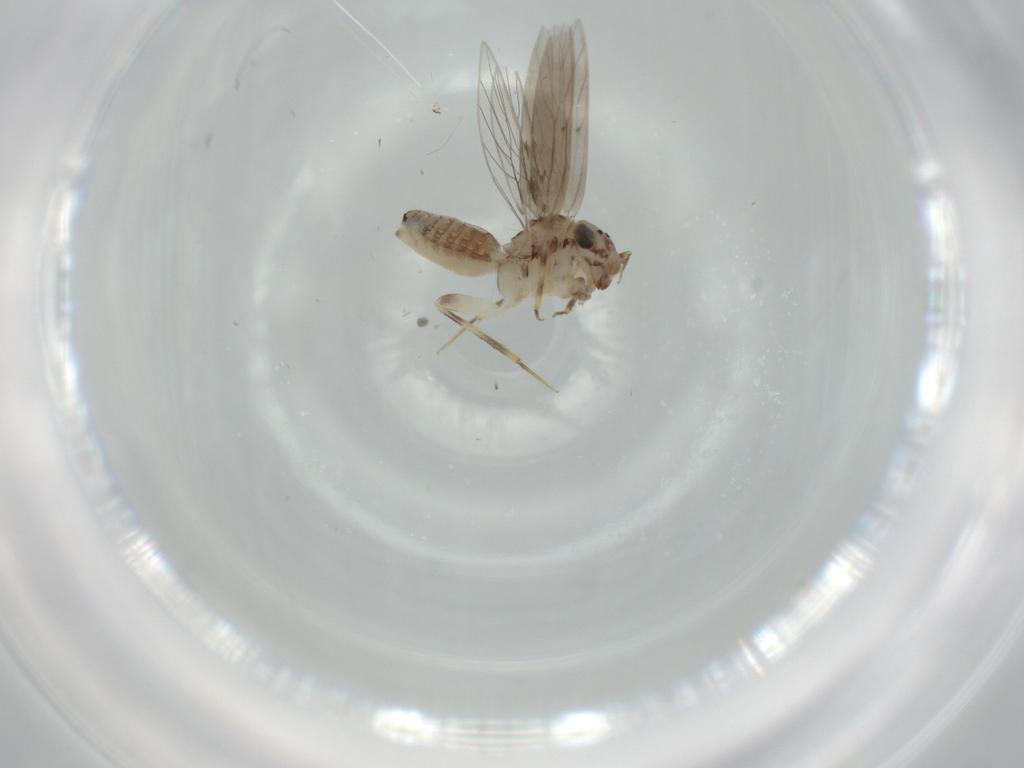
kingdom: Animalia
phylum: Arthropoda
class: Insecta
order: Psocodea
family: Lepidopsocidae
